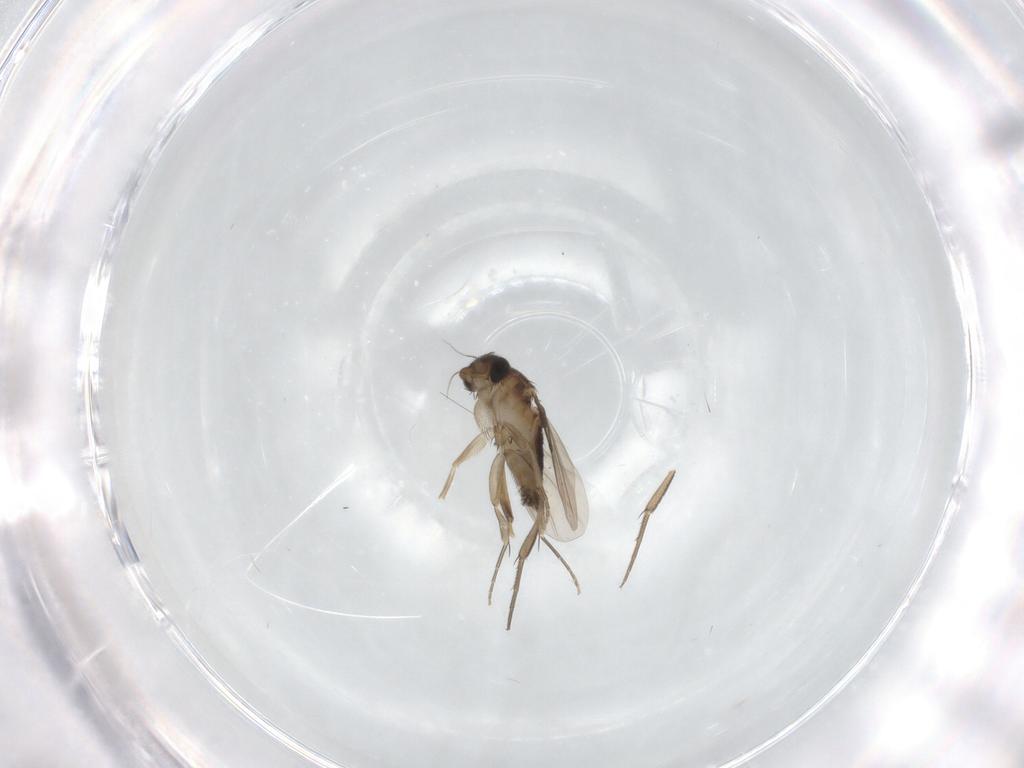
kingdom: Animalia
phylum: Arthropoda
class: Insecta
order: Diptera
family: Phoridae
